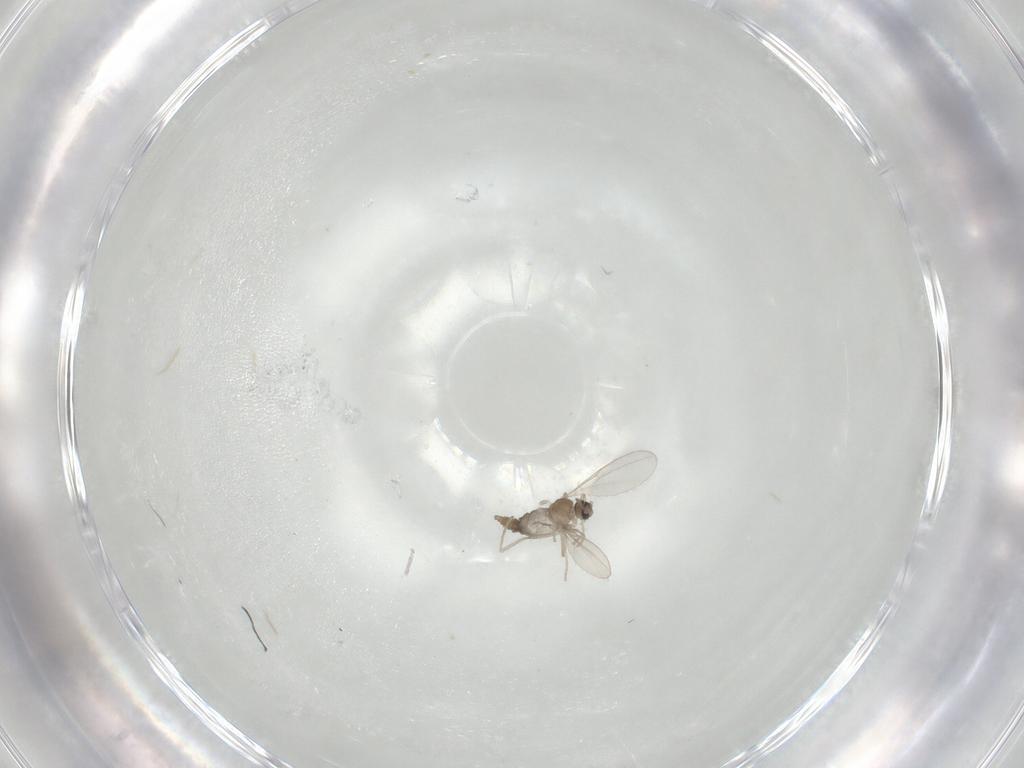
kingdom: Animalia
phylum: Arthropoda
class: Insecta
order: Diptera
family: Cecidomyiidae
